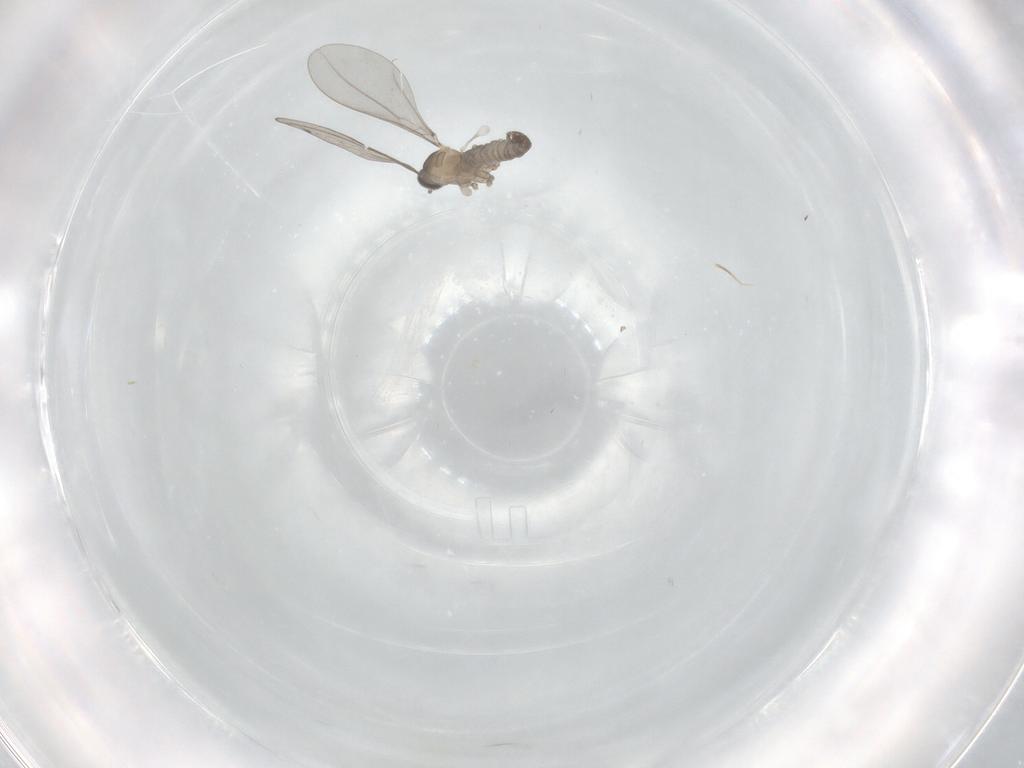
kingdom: Animalia
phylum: Arthropoda
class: Insecta
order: Diptera
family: Cecidomyiidae
